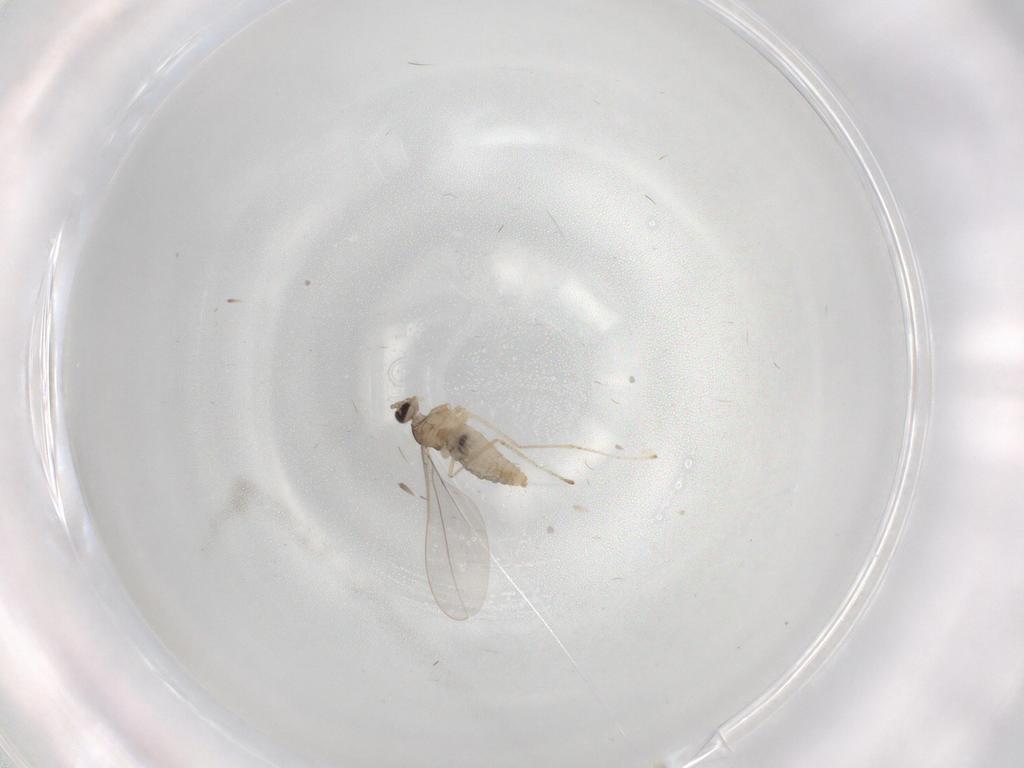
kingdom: Animalia
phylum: Arthropoda
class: Insecta
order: Diptera
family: Cecidomyiidae
